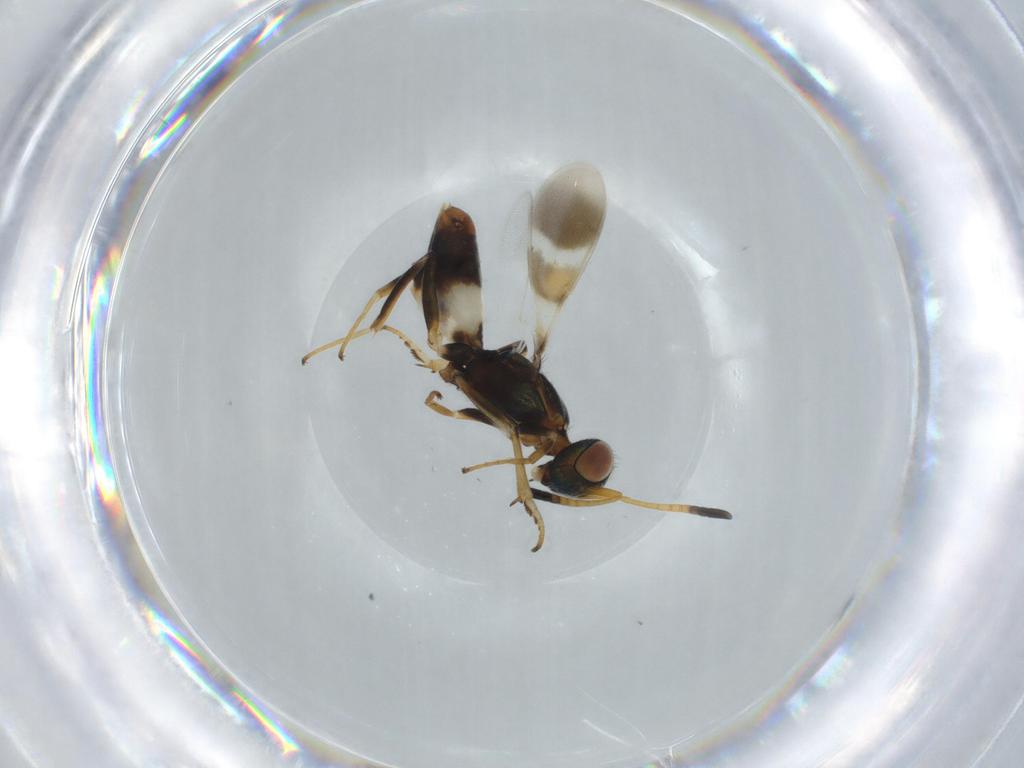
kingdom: Animalia
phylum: Arthropoda
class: Insecta
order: Hymenoptera
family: Eupelmidae
